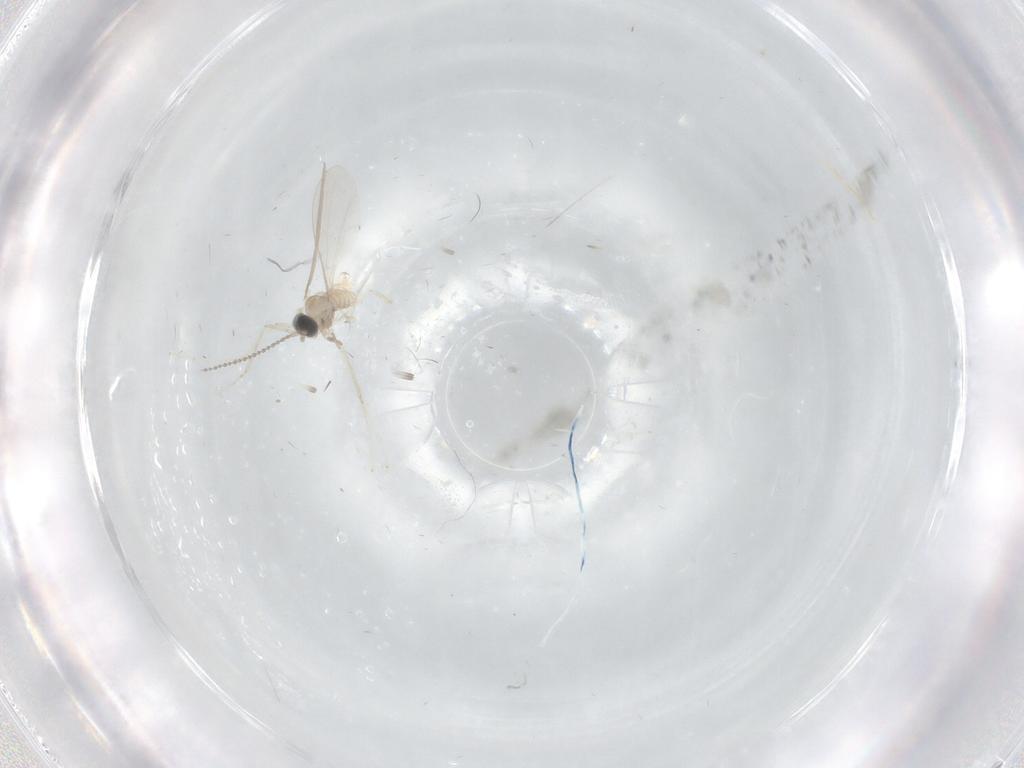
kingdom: Animalia
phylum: Arthropoda
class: Insecta
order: Diptera
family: Cecidomyiidae
